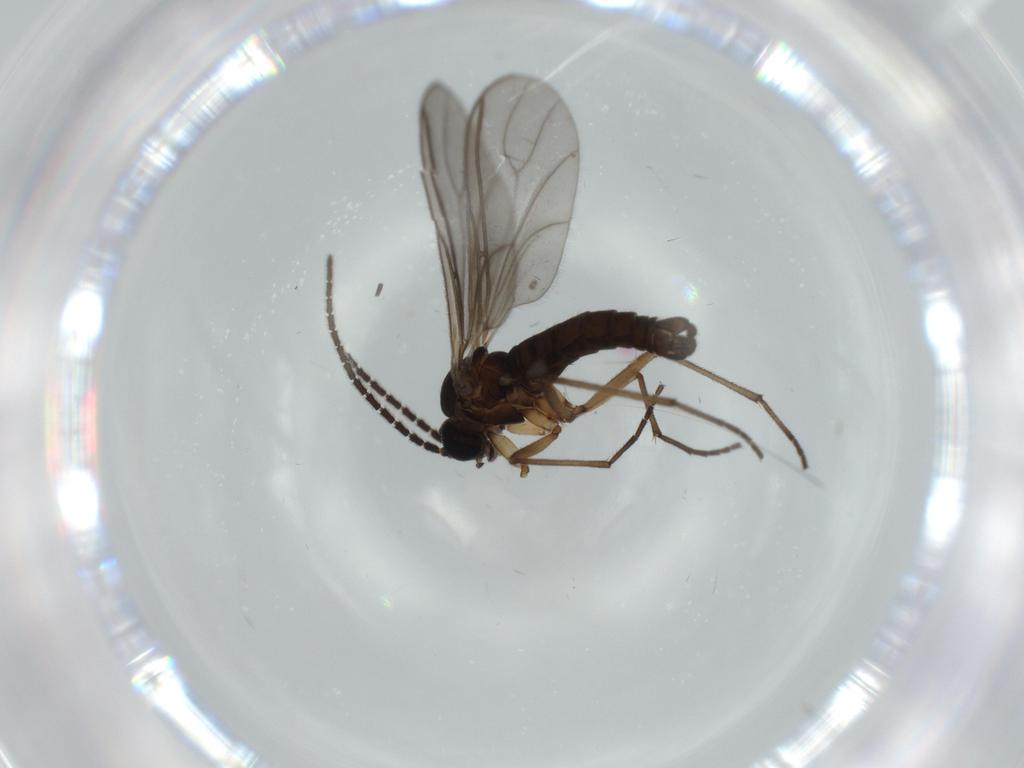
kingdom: Animalia
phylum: Arthropoda
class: Insecta
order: Diptera
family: Sciaridae
